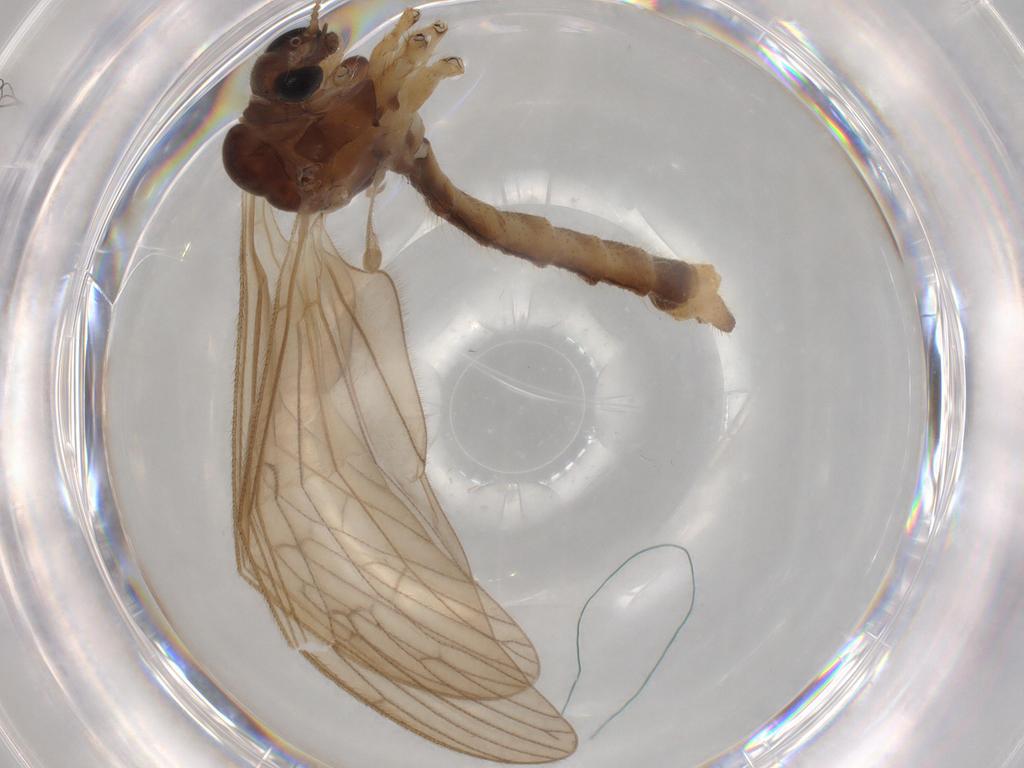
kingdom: Animalia
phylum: Arthropoda
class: Insecta
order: Diptera
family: Limoniidae
